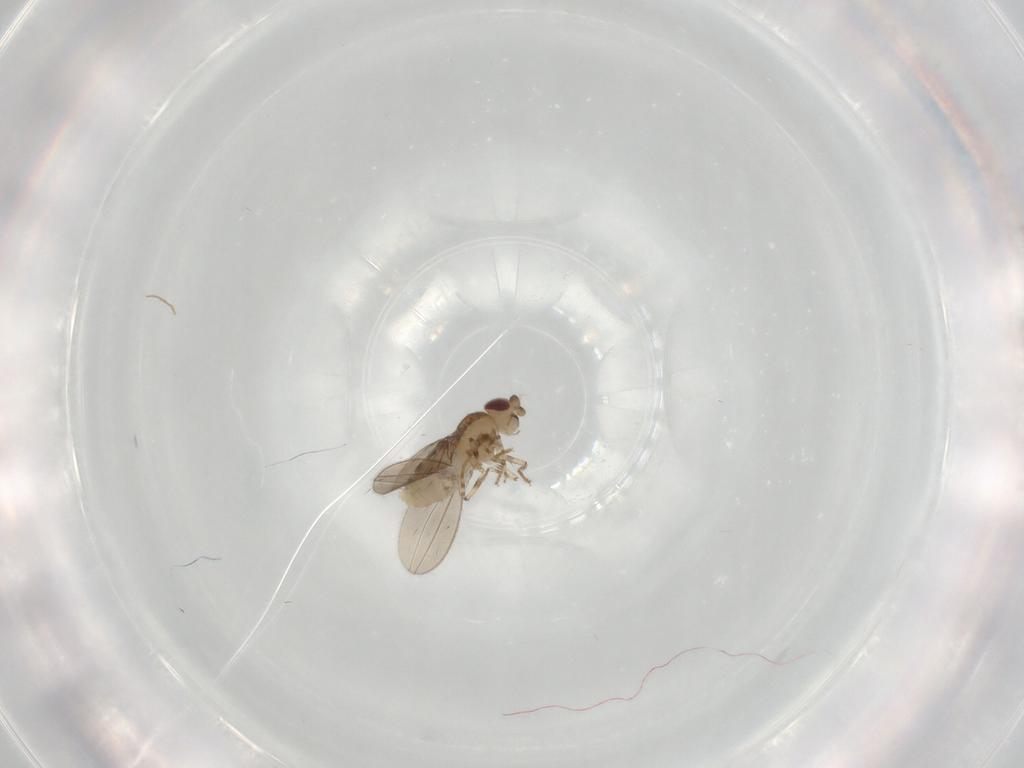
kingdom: Animalia
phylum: Arthropoda
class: Insecta
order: Diptera
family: Asteiidae
